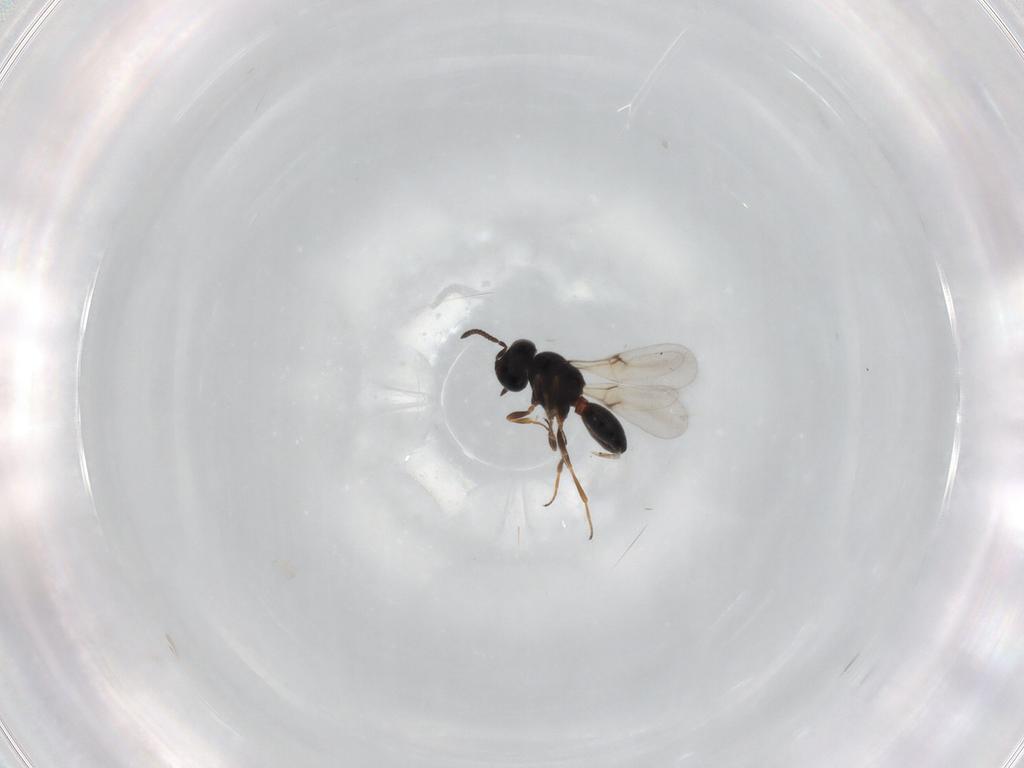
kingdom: Animalia
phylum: Arthropoda
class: Insecta
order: Hymenoptera
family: Scelionidae
